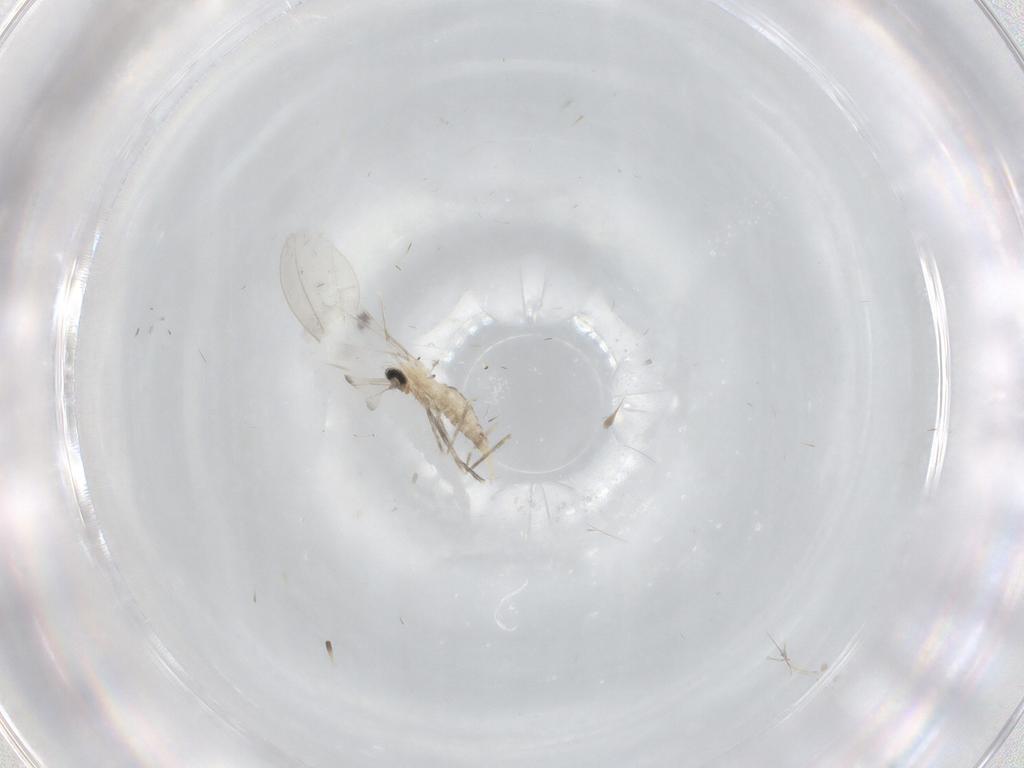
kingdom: Animalia
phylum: Arthropoda
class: Insecta
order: Diptera
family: Cecidomyiidae
